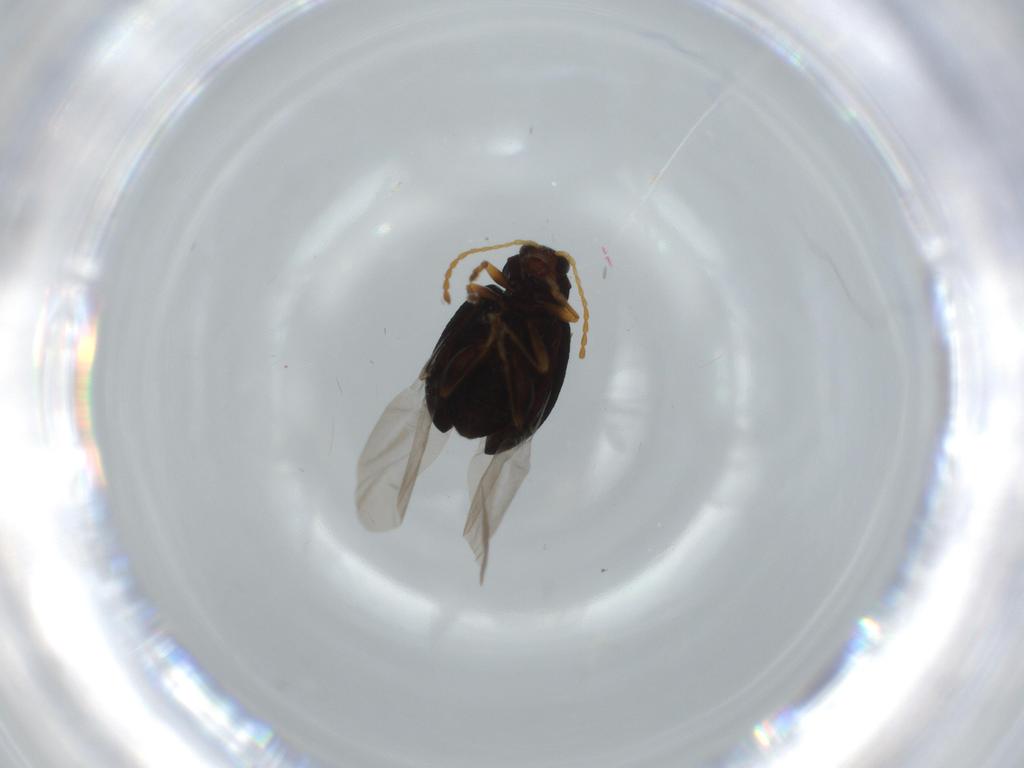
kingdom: Animalia
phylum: Arthropoda
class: Insecta
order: Coleoptera
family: Chrysomelidae
